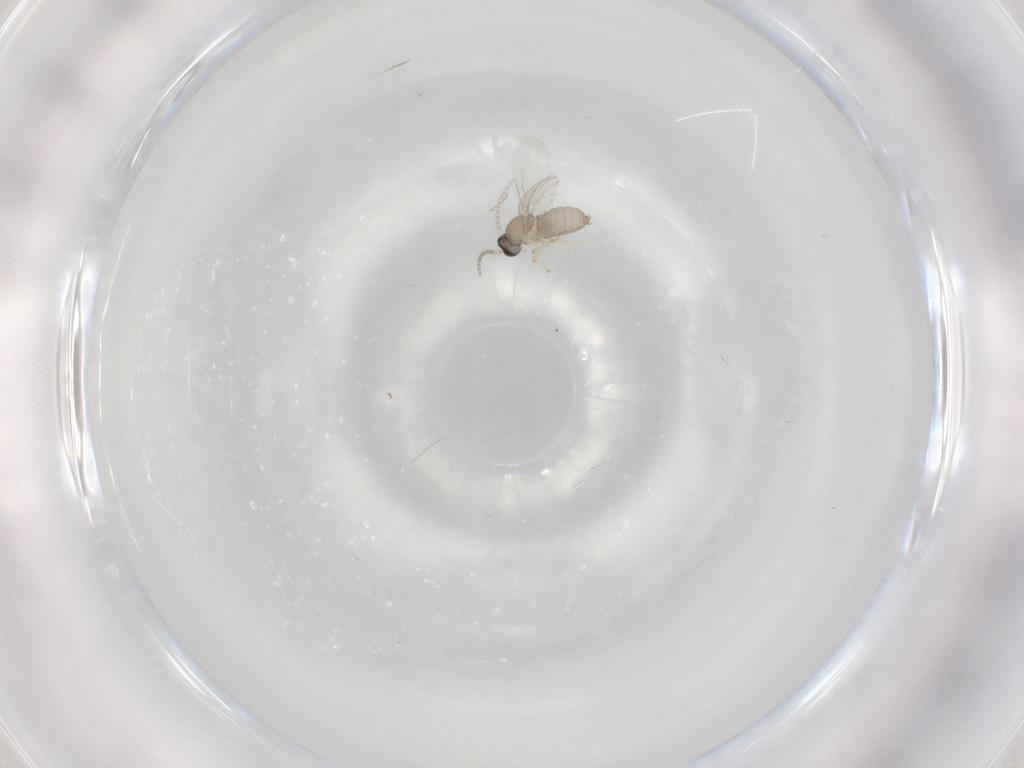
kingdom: Animalia
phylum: Arthropoda
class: Insecta
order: Diptera
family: Cecidomyiidae
